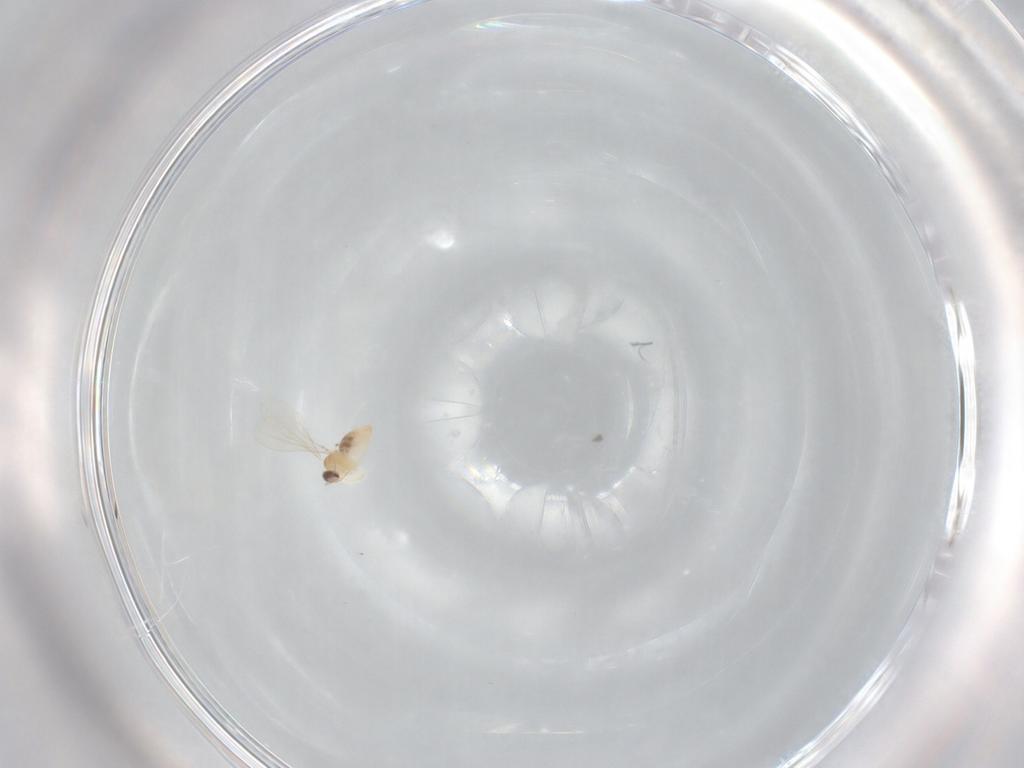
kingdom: Animalia
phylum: Arthropoda
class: Insecta
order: Diptera
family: Cecidomyiidae
